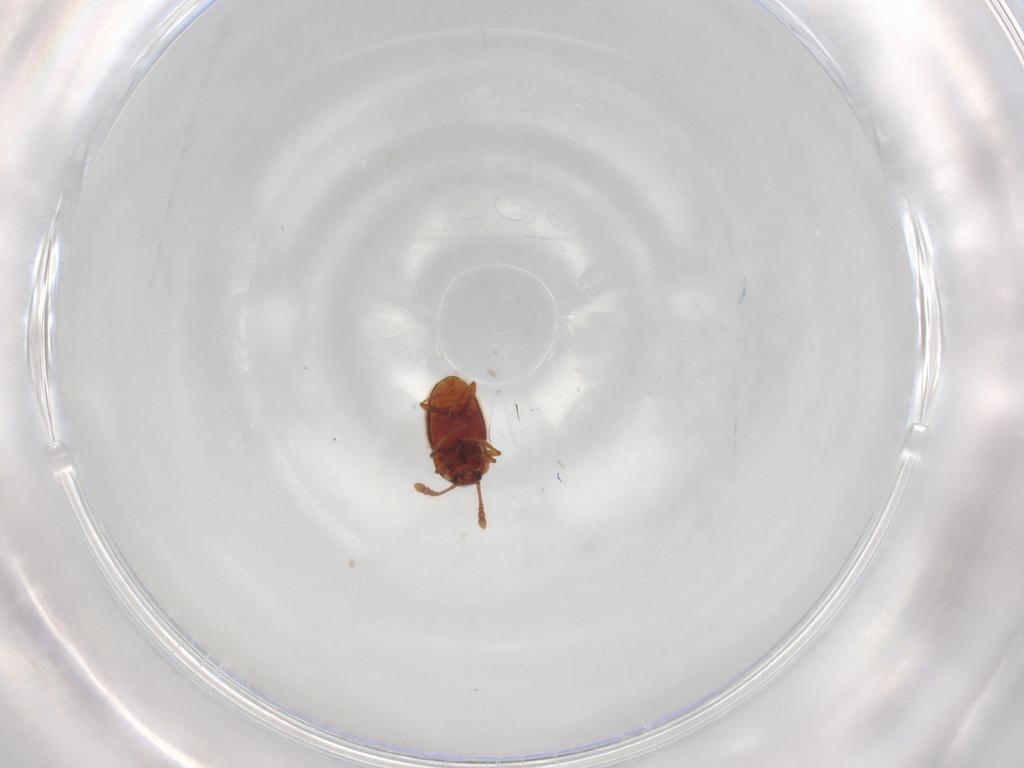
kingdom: Animalia
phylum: Arthropoda
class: Insecta
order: Coleoptera
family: Staphylinidae
